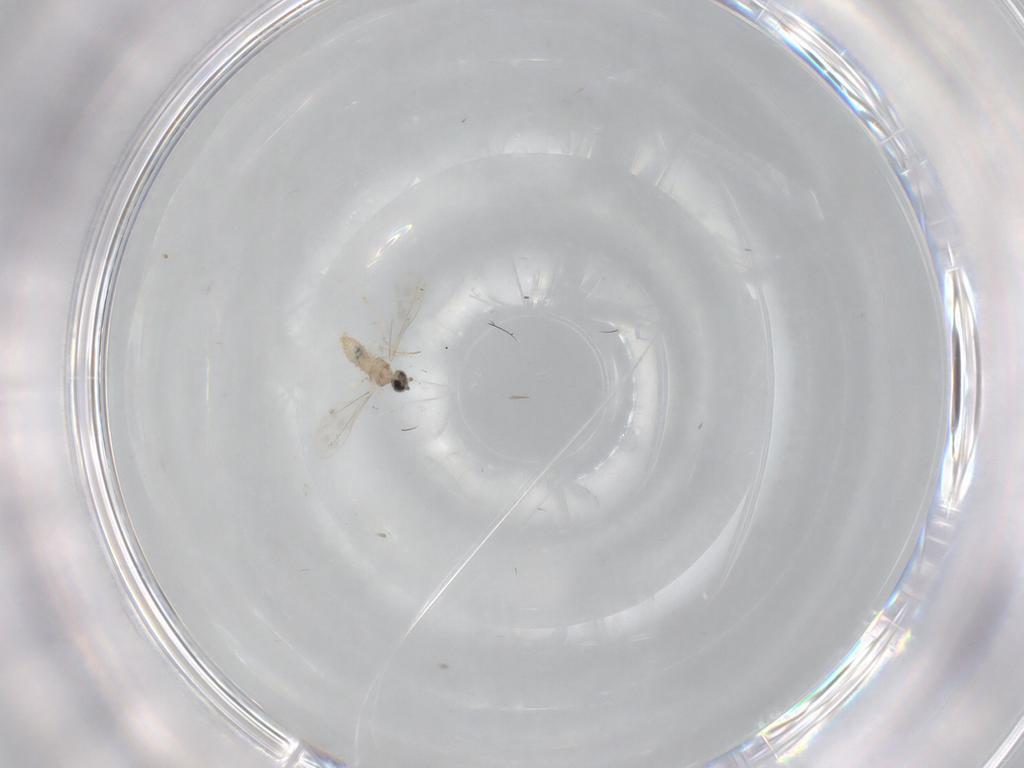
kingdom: Animalia
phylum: Arthropoda
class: Insecta
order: Diptera
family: Cecidomyiidae
